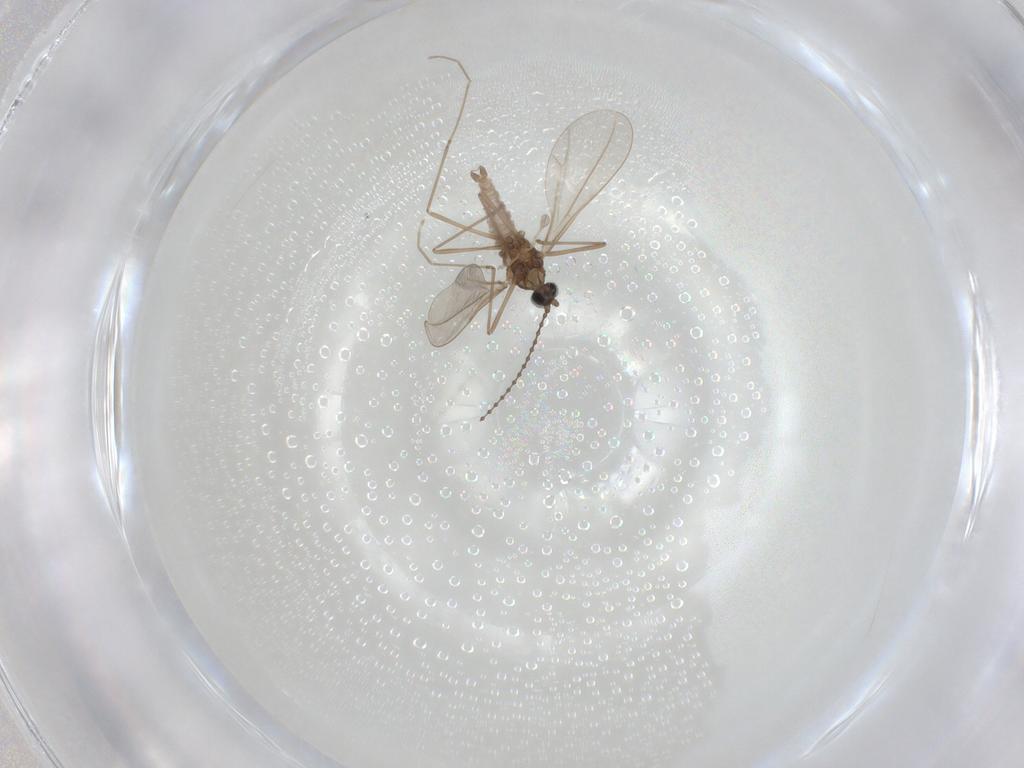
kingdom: Animalia
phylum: Arthropoda
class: Insecta
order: Diptera
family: Cecidomyiidae
